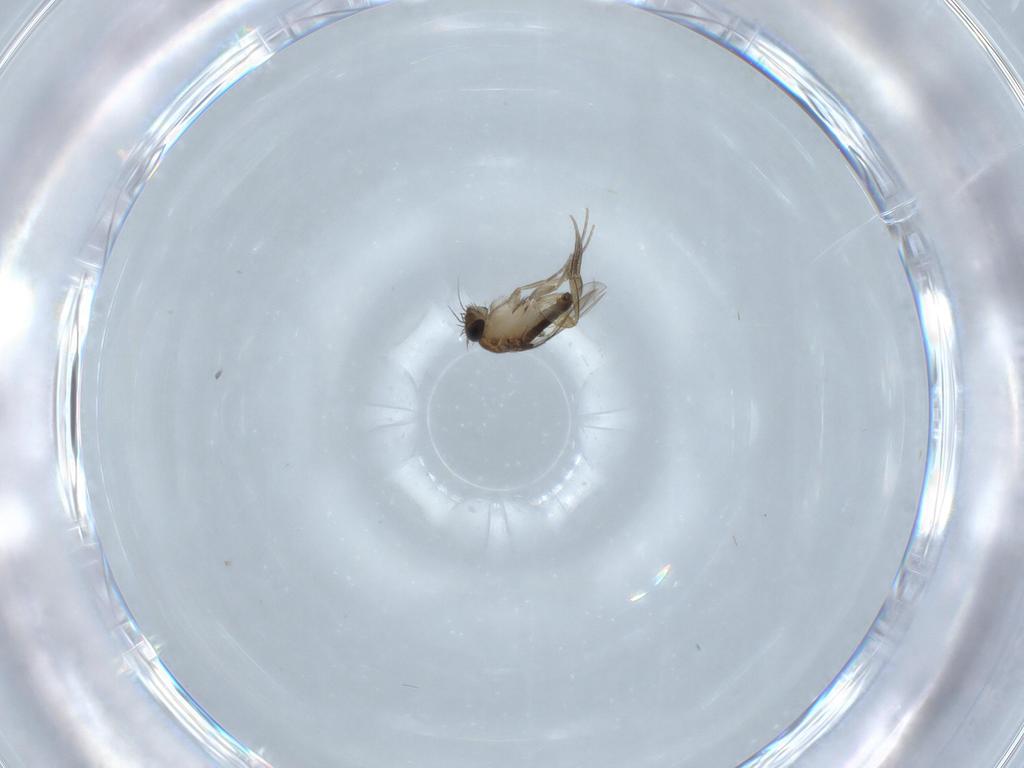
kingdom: Animalia
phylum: Arthropoda
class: Insecta
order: Diptera
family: Phoridae
